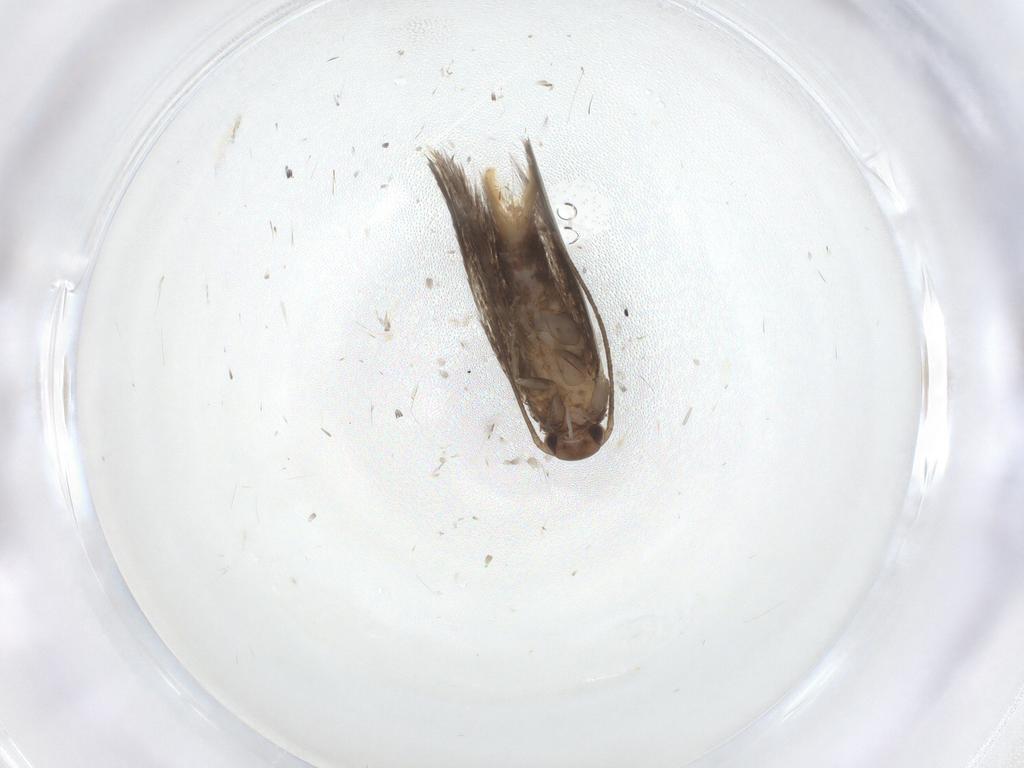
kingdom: Animalia
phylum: Arthropoda
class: Insecta
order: Lepidoptera
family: Elachistidae
